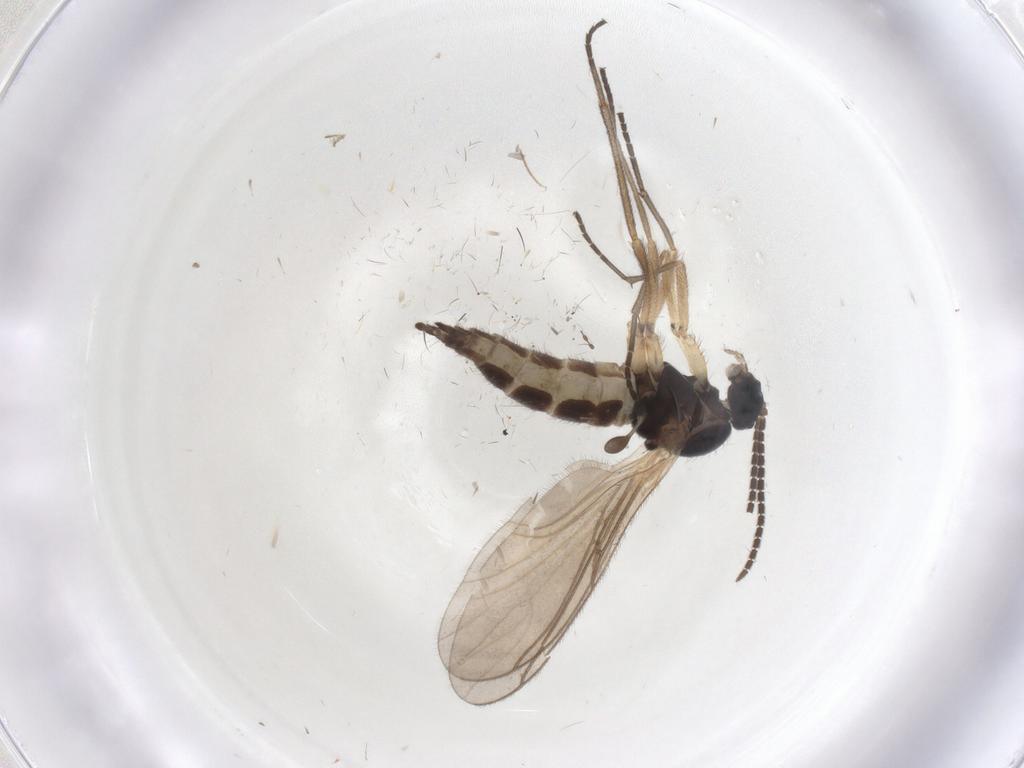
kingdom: Animalia
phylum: Arthropoda
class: Insecta
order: Diptera
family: Sciaridae
